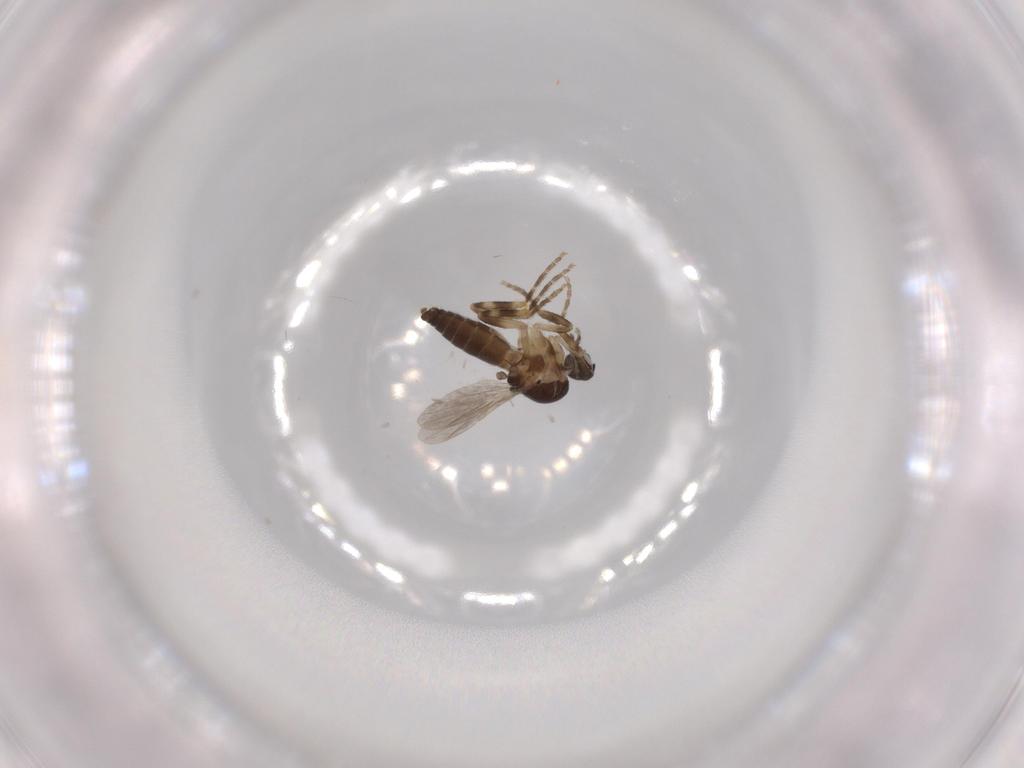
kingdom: Animalia
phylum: Arthropoda
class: Insecta
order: Diptera
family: Ceratopogonidae
